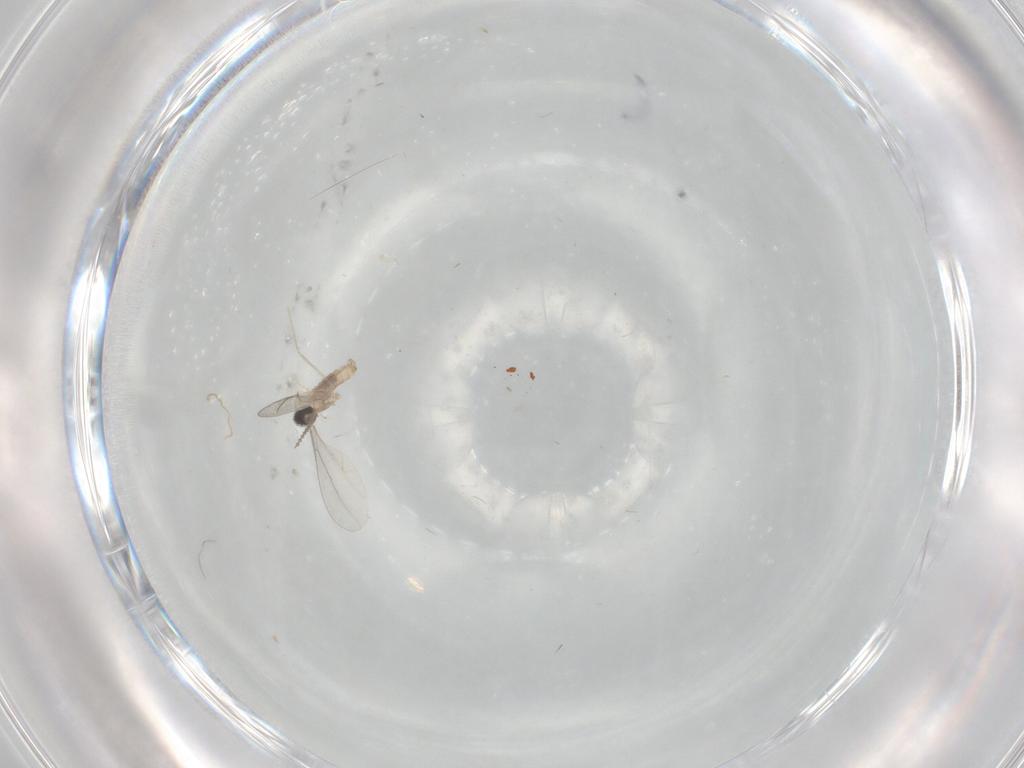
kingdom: Animalia
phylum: Arthropoda
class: Insecta
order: Diptera
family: Cecidomyiidae
